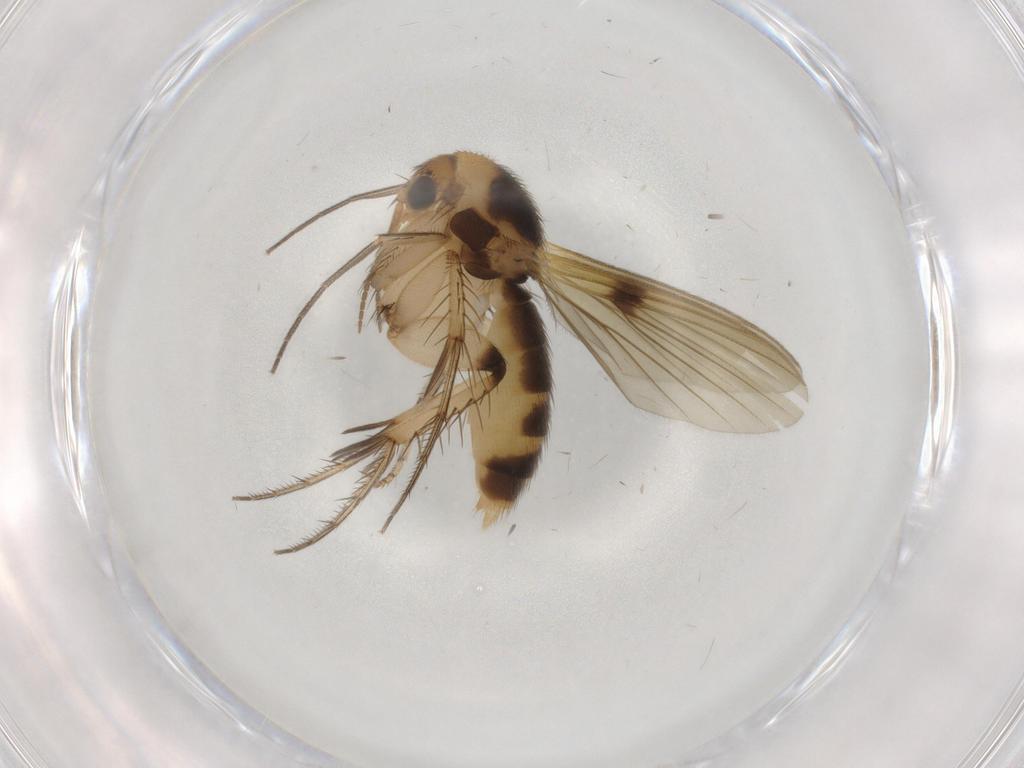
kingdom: Animalia
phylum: Arthropoda
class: Insecta
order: Diptera
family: Mycetophilidae
